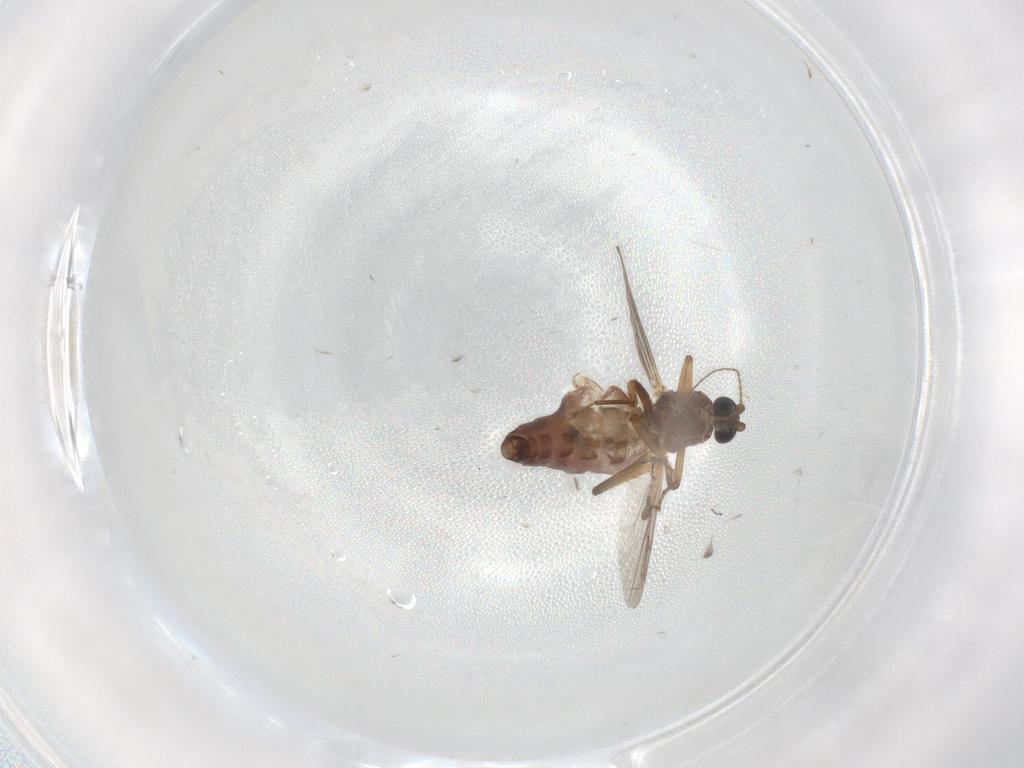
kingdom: Animalia
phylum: Arthropoda
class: Insecta
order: Diptera
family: Ceratopogonidae
